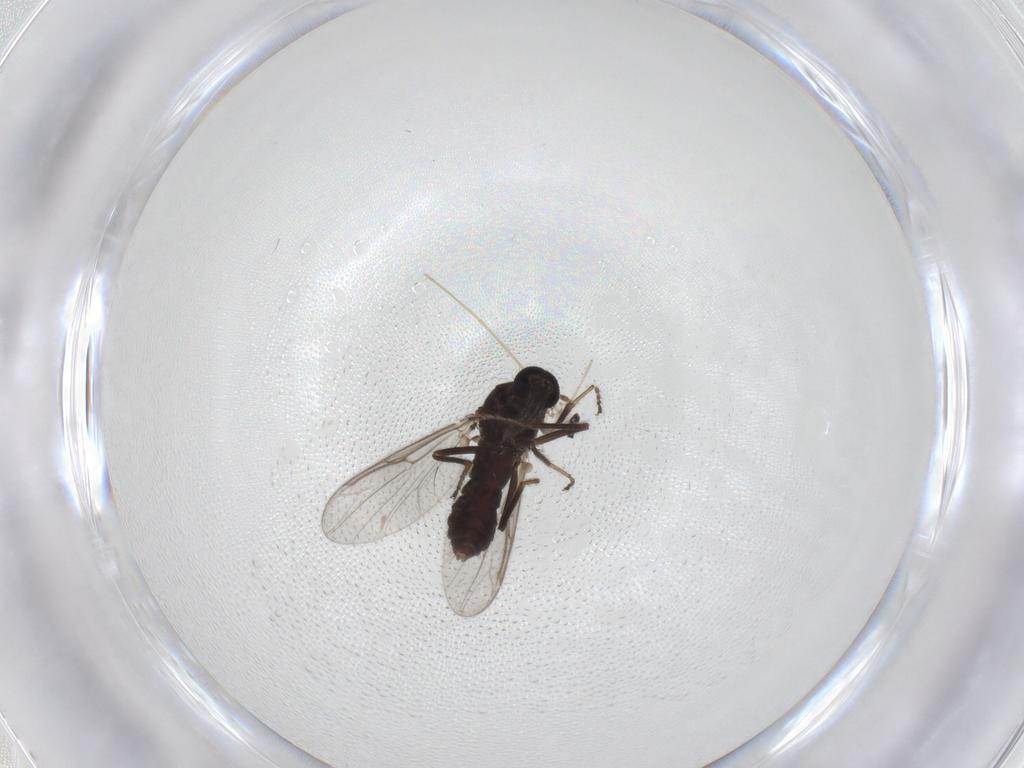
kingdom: Animalia
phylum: Arthropoda
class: Insecta
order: Diptera
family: Ceratopogonidae
